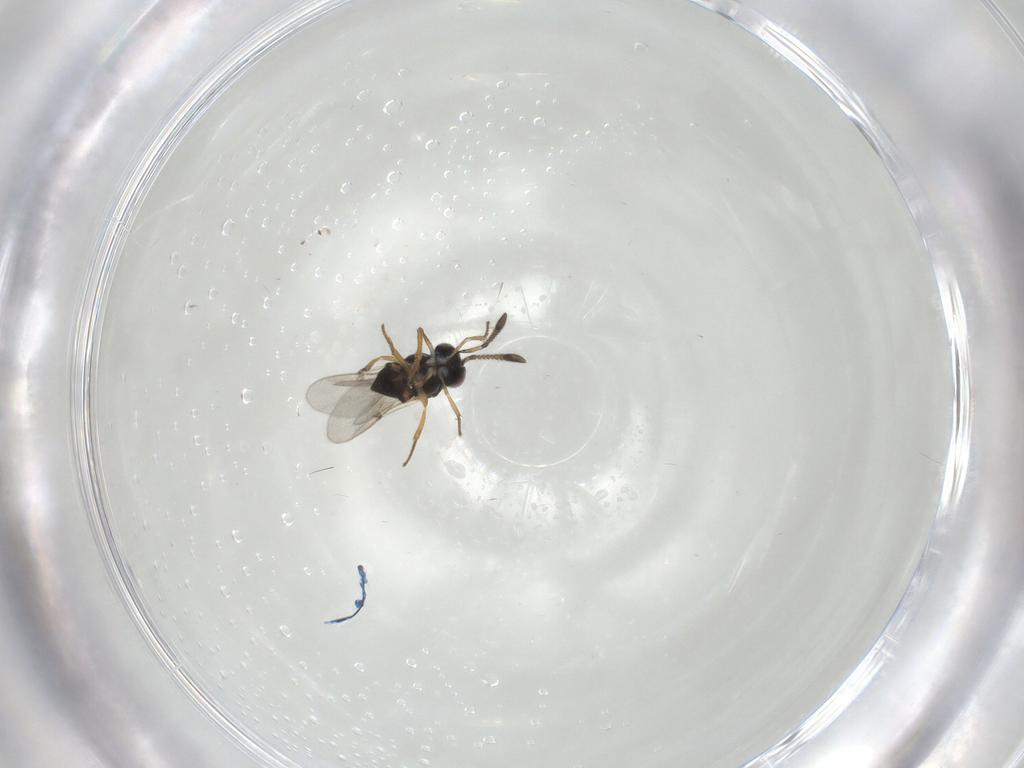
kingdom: Animalia
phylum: Arthropoda
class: Insecta
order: Hymenoptera
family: Encyrtidae
